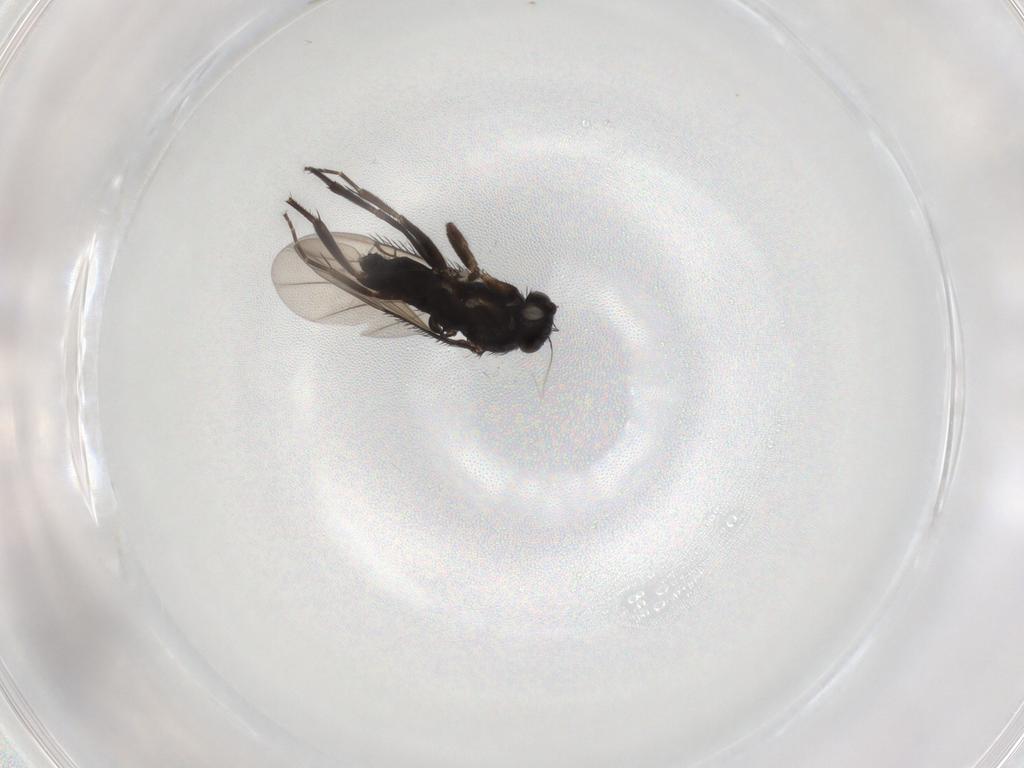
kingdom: Animalia
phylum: Arthropoda
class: Insecta
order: Diptera
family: Phoridae
